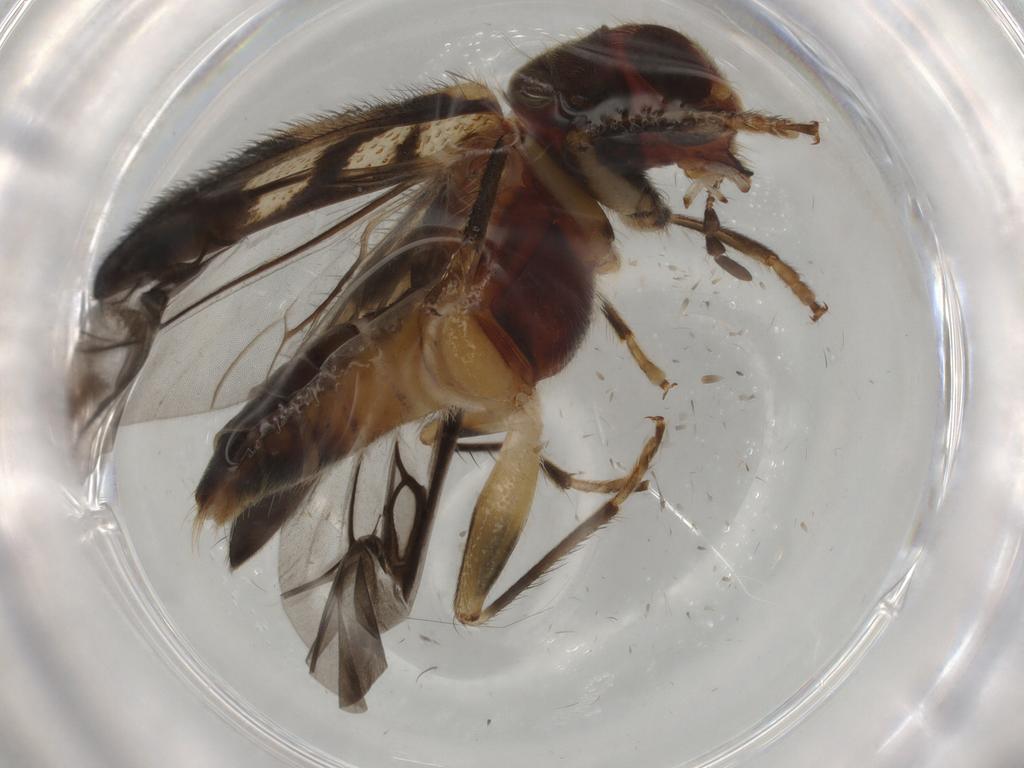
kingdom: Animalia
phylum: Arthropoda
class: Insecta
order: Coleoptera
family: Cleridae
